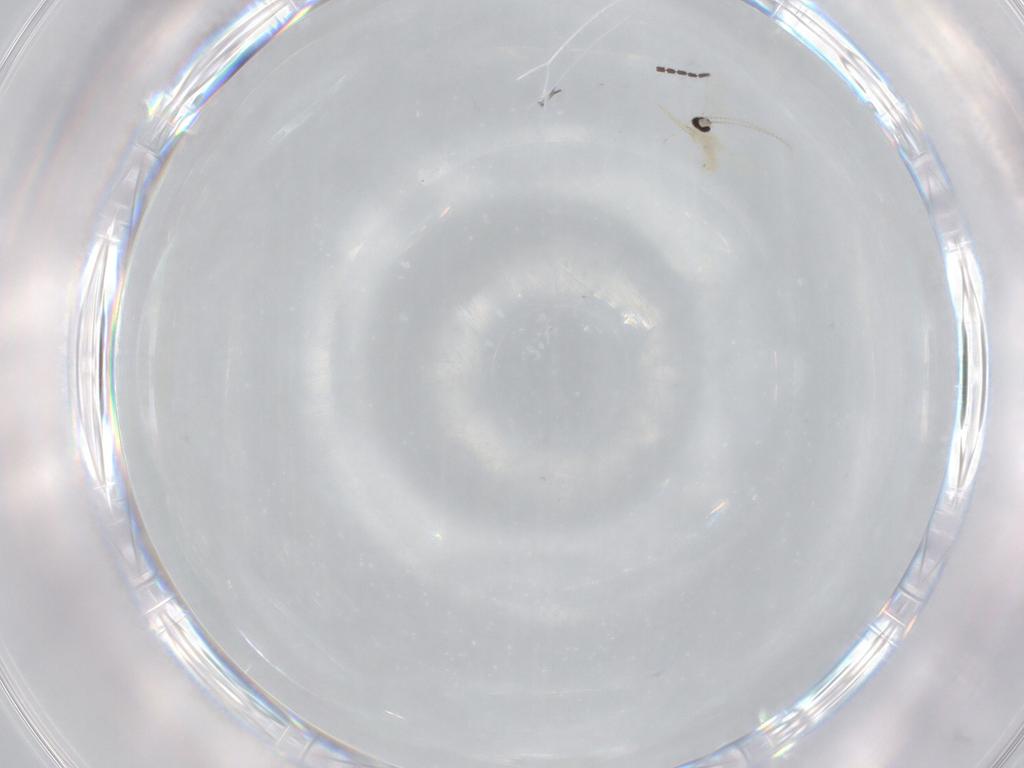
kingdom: Animalia
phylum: Arthropoda
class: Insecta
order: Diptera
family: Cecidomyiidae
